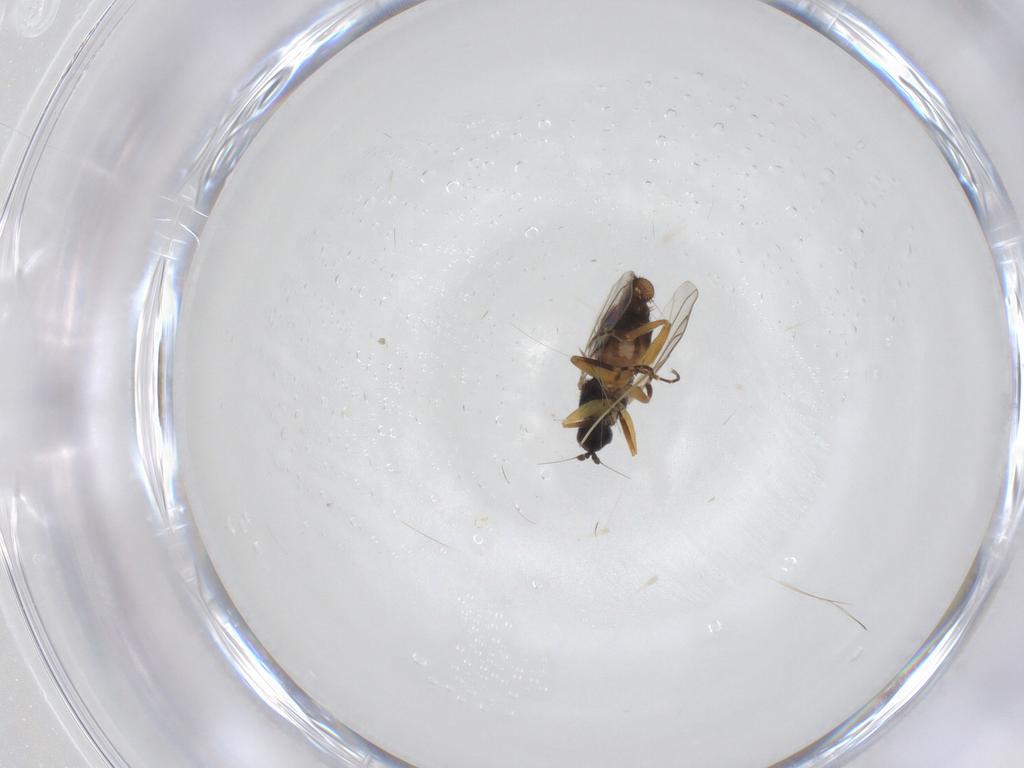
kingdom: Animalia
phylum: Arthropoda
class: Insecta
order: Diptera
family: Hybotidae
